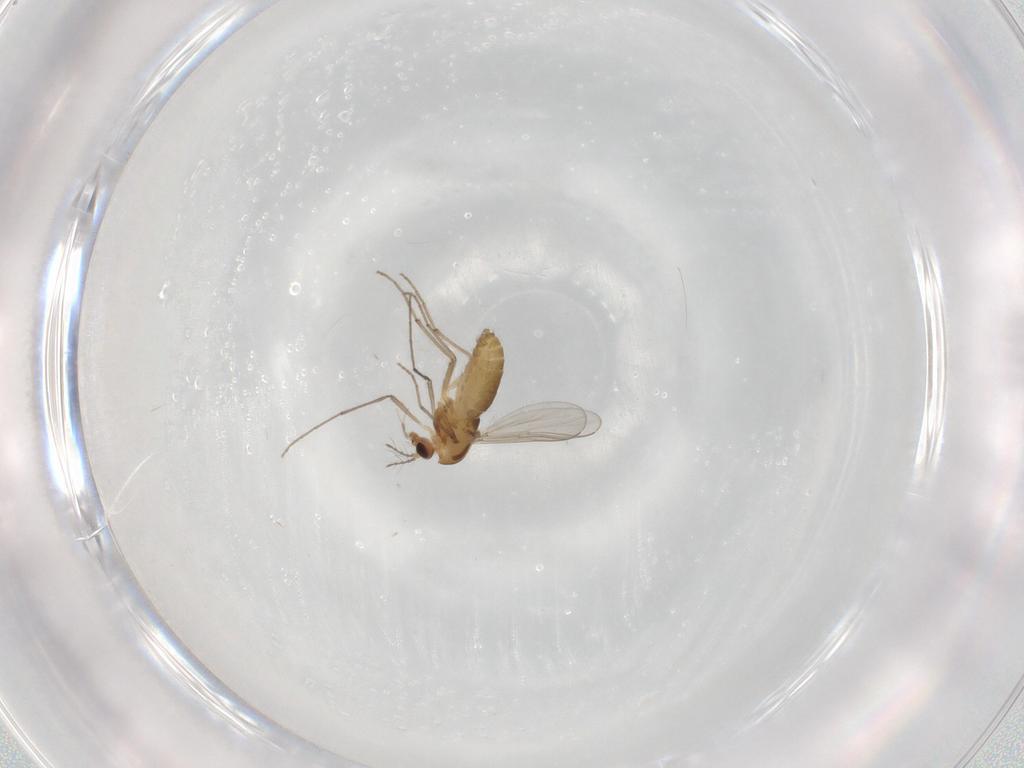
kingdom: Animalia
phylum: Arthropoda
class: Insecta
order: Diptera
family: Chironomidae
